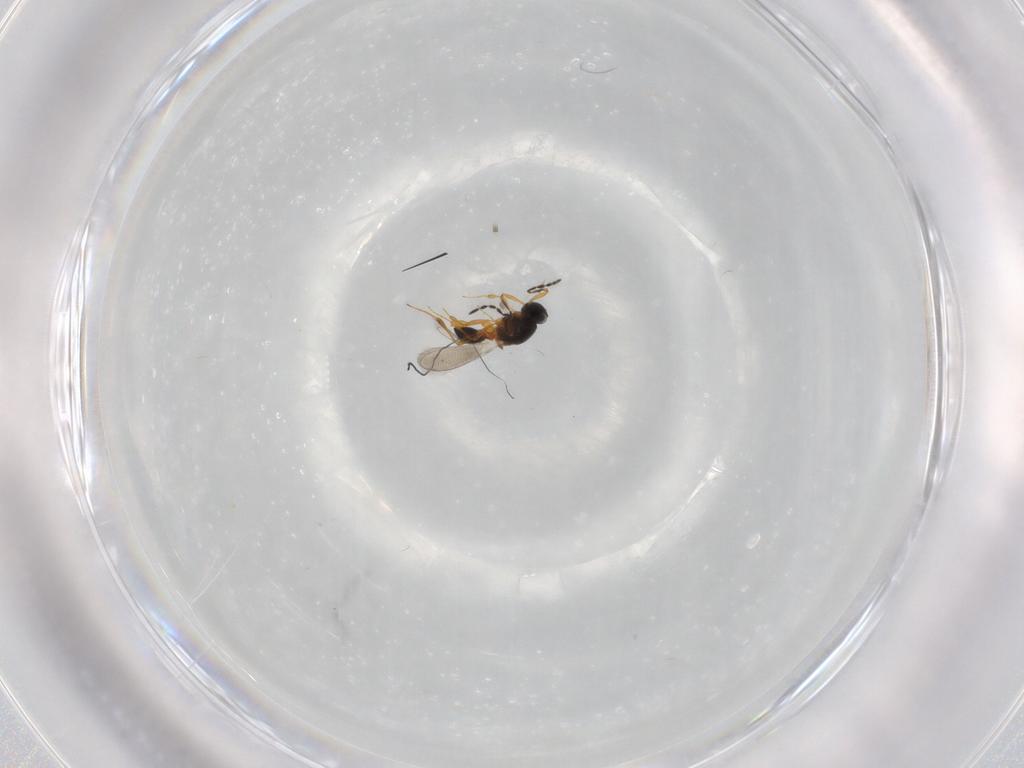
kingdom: Animalia
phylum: Arthropoda
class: Insecta
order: Hymenoptera
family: Platygastridae
